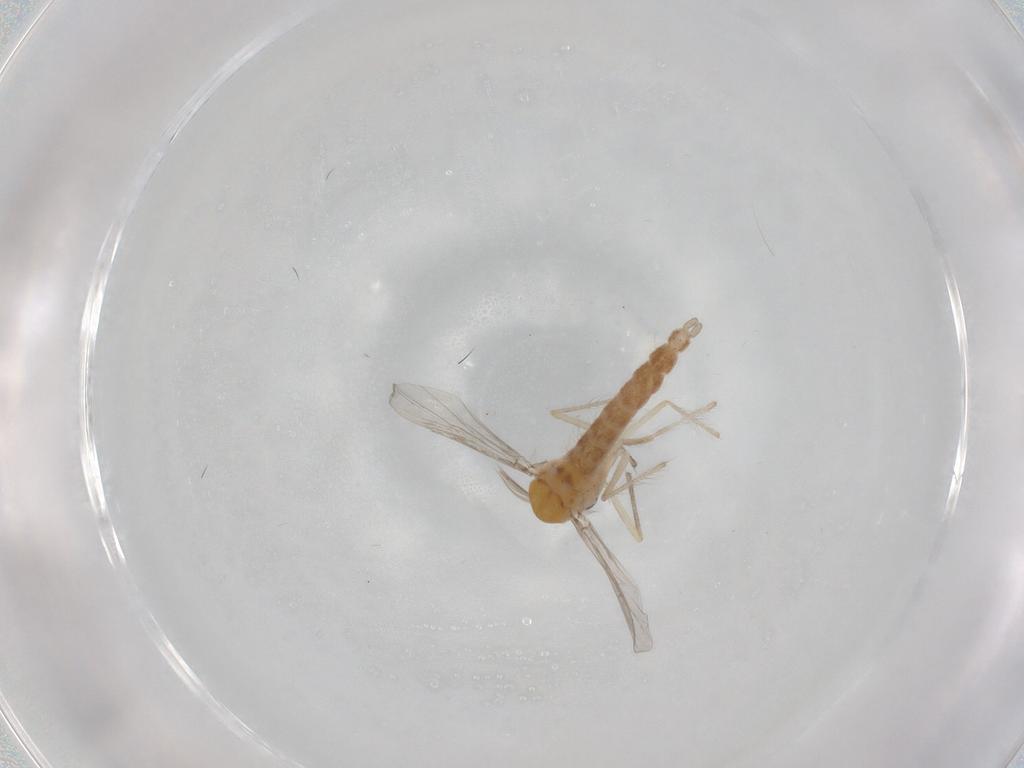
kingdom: Animalia
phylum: Arthropoda
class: Insecta
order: Diptera
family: Chironomidae
